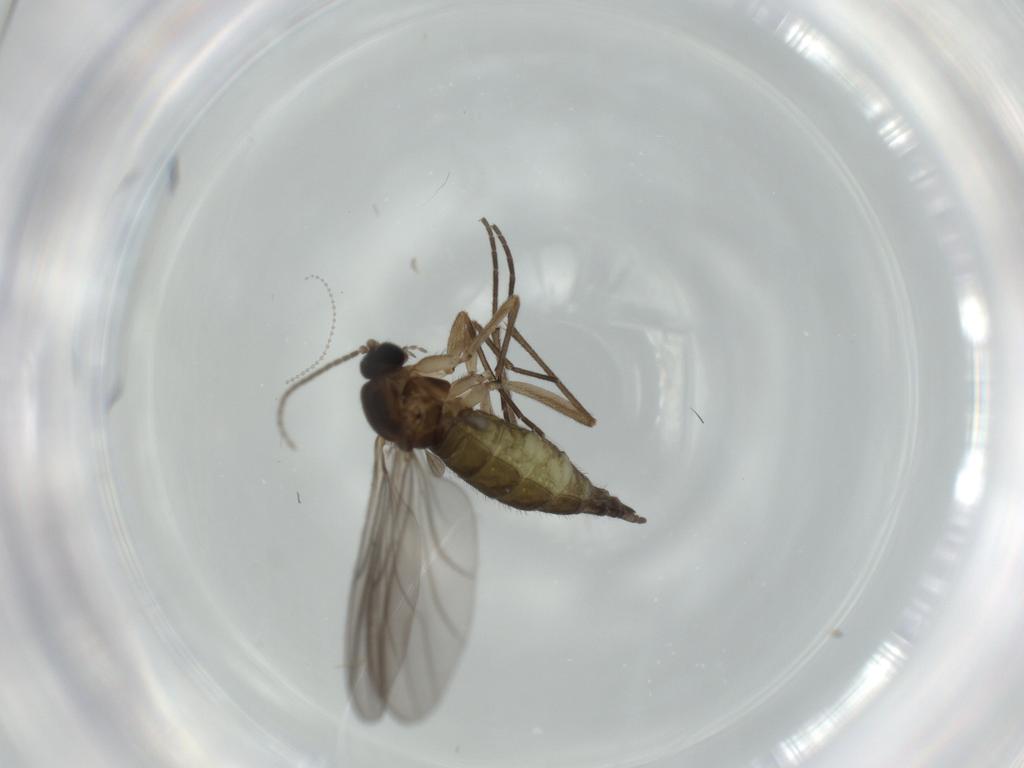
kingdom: Animalia
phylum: Arthropoda
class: Insecta
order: Diptera
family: Sciaridae
